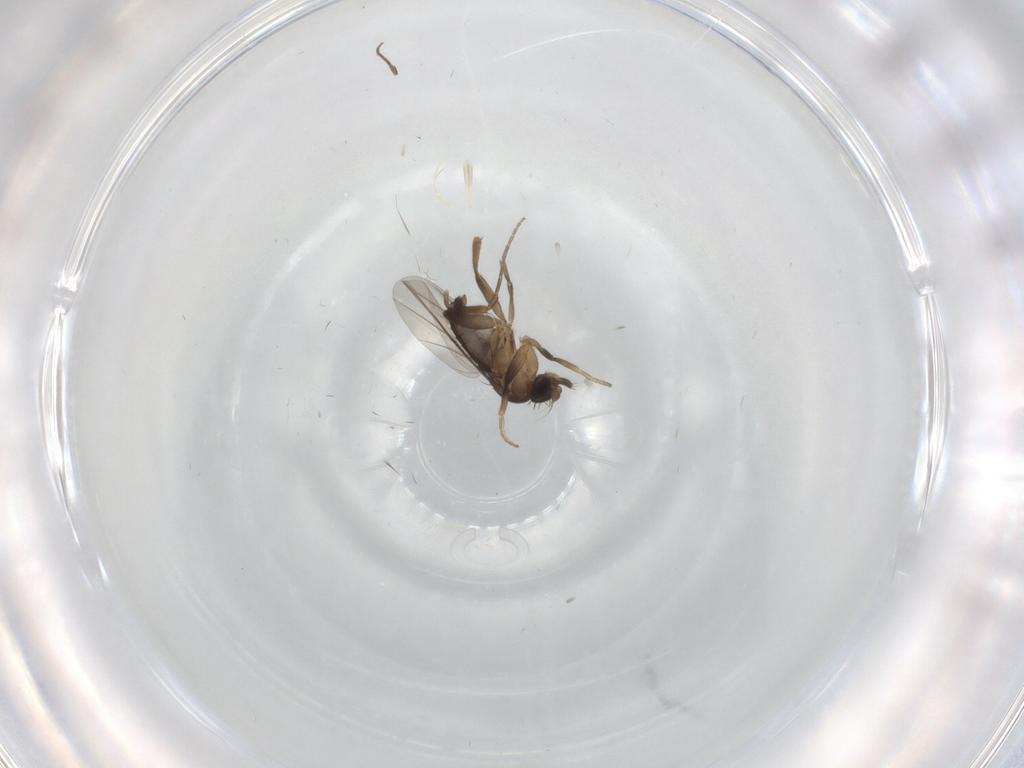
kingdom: Animalia
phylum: Arthropoda
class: Insecta
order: Diptera
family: Phoridae
